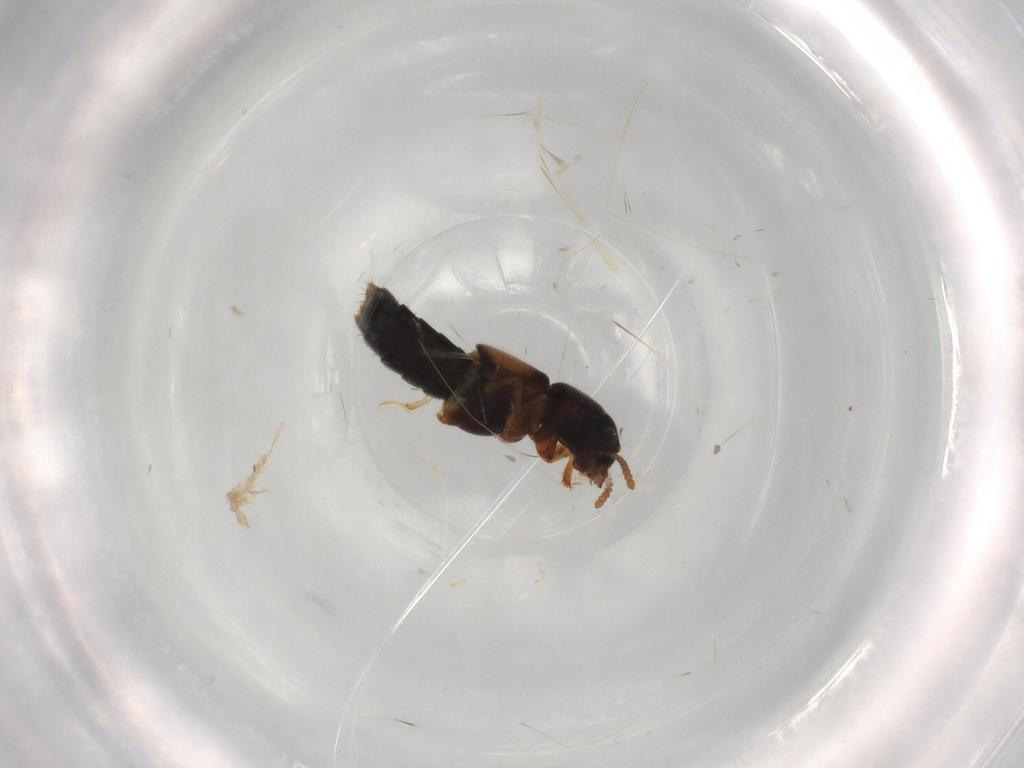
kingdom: Animalia
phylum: Arthropoda
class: Insecta
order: Coleoptera
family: Staphylinidae
